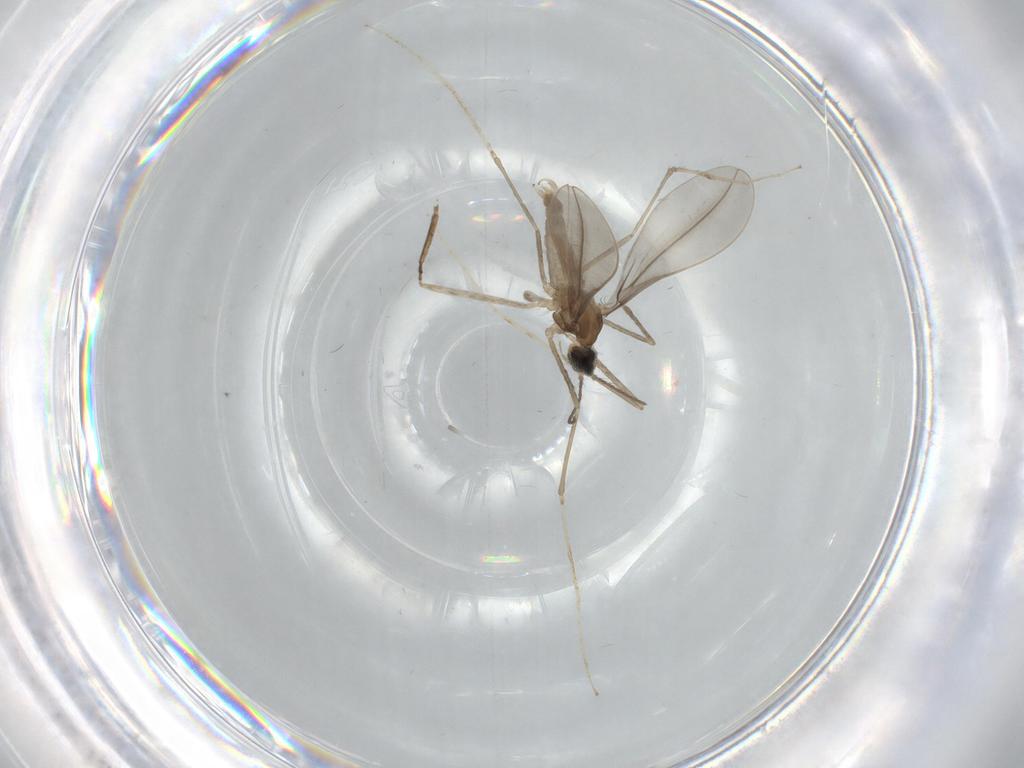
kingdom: Animalia
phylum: Arthropoda
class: Insecta
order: Diptera
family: Cecidomyiidae
